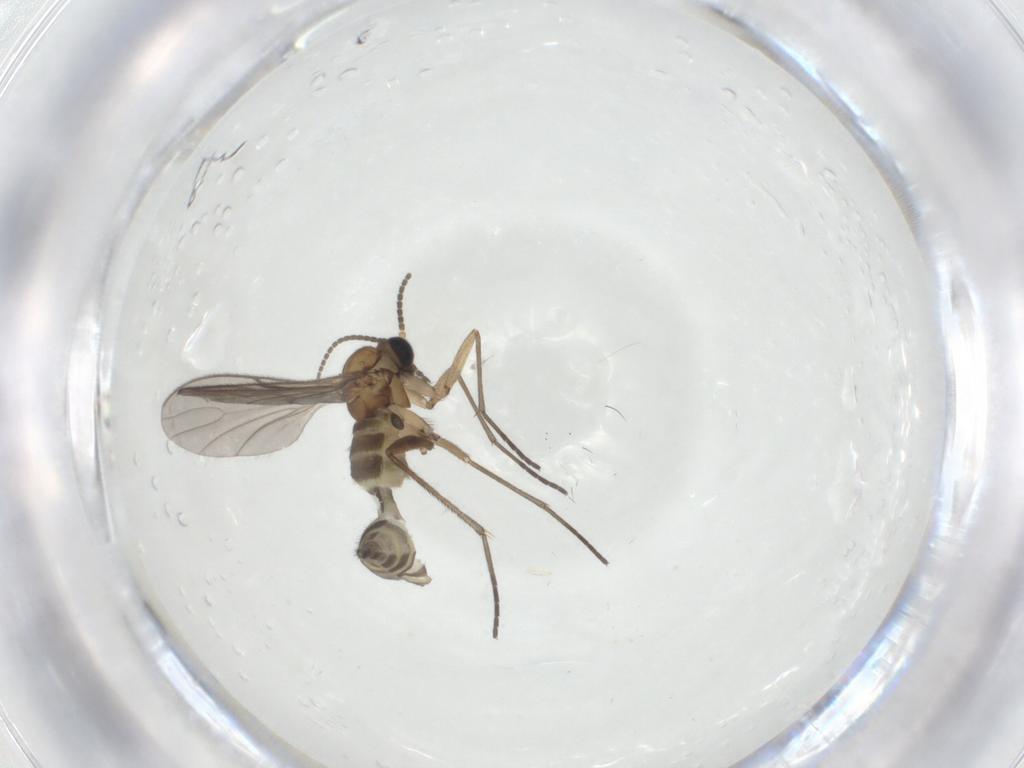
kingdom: Animalia
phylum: Arthropoda
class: Insecta
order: Diptera
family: Sciaridae
